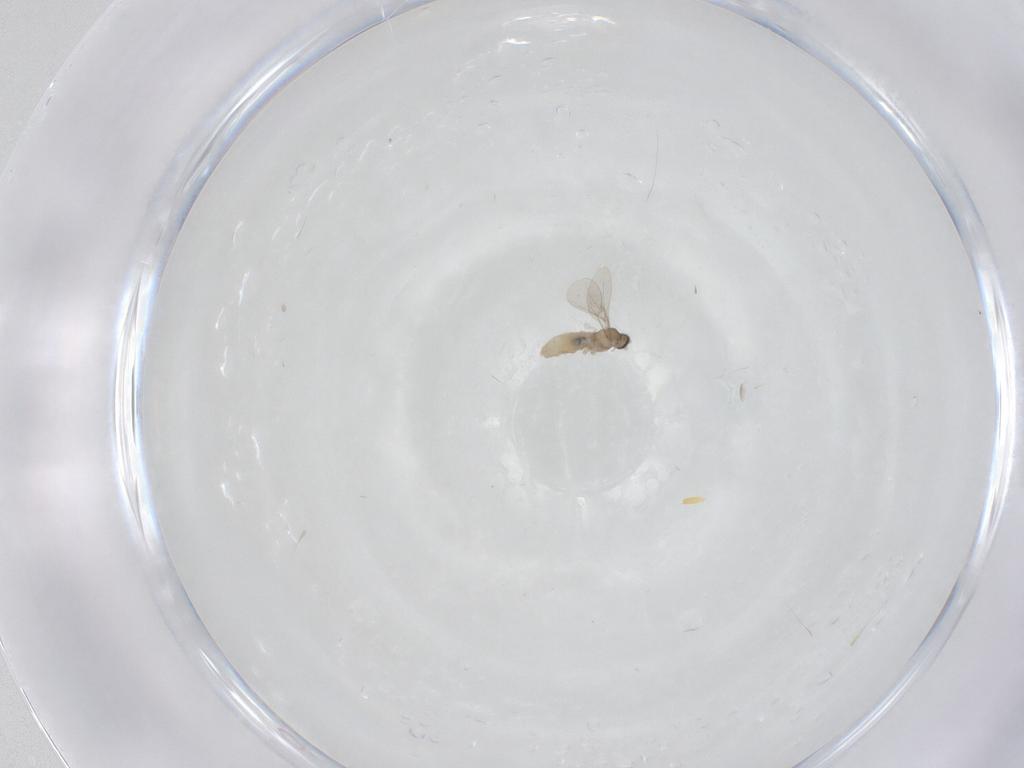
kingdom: Animalia
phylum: Arthropoda
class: Insecta
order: Diptera
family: Cecidomyiidae
